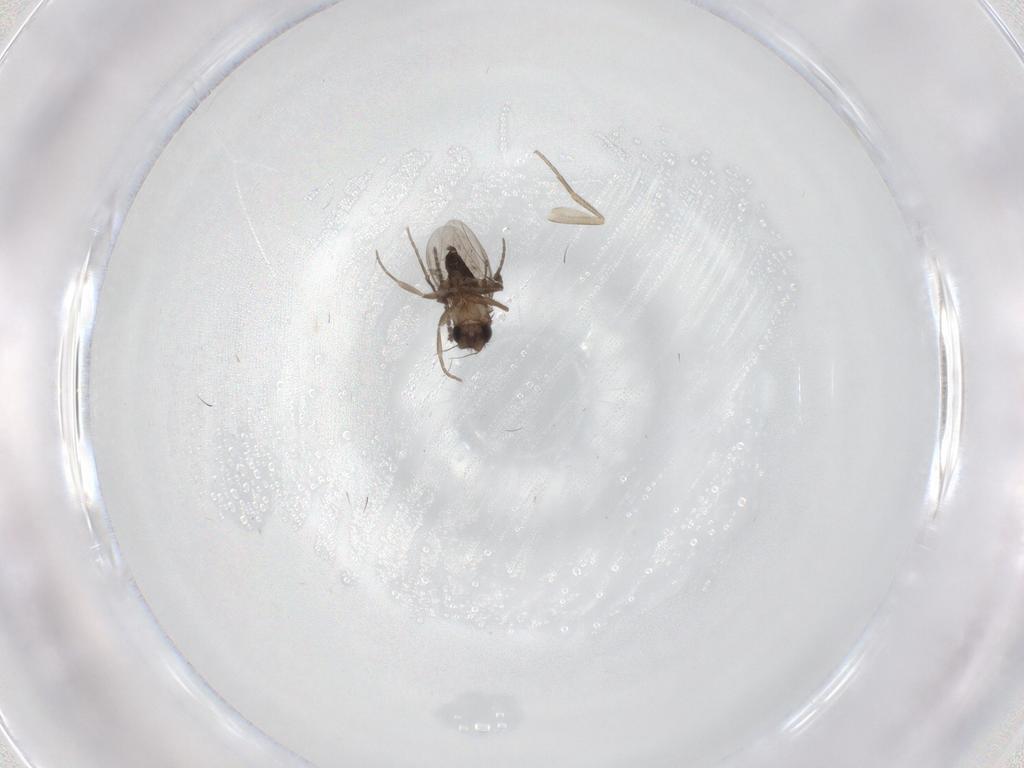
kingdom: Animalia
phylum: Arthropoda
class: Insecta
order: Diptera
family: Sciaridae
